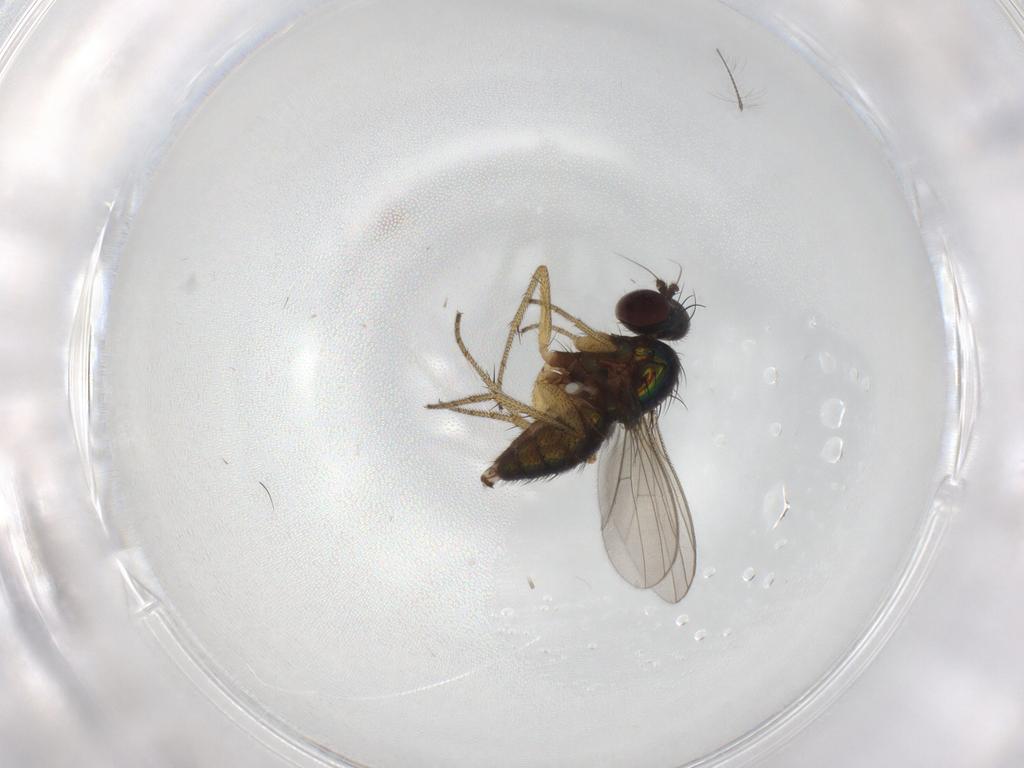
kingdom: Animalia
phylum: Arthropoda
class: Insecta
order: Diptera
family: Chironomidae
